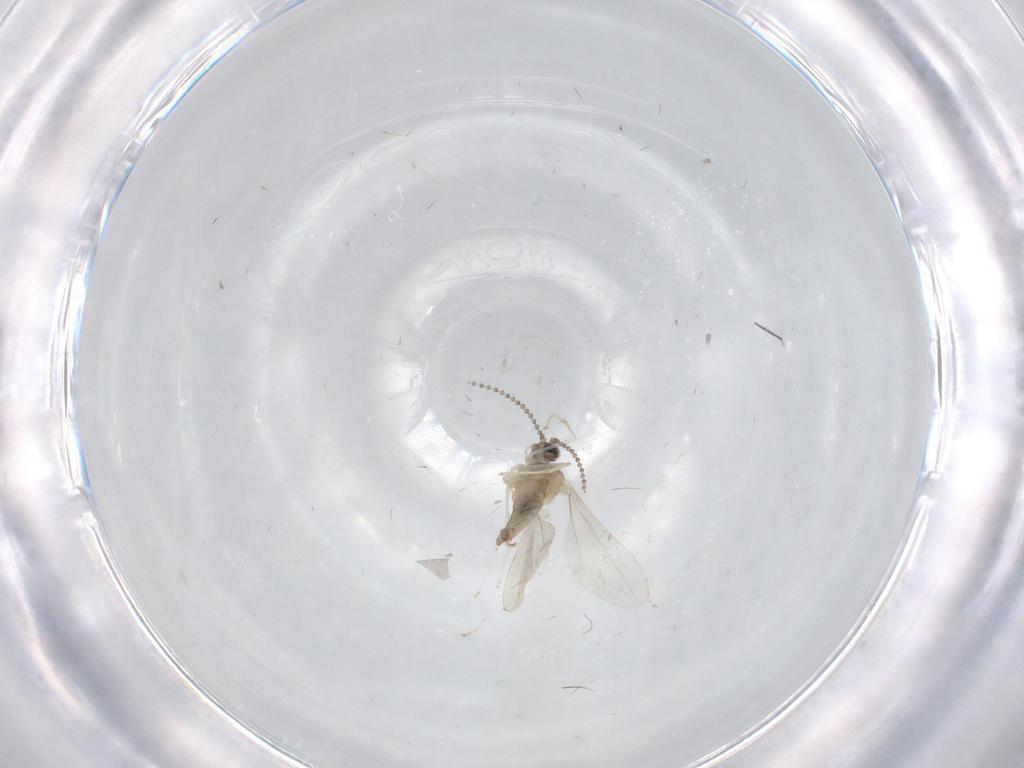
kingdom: Animalia
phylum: Arthropoda
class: Insecta
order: Diptera
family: Cecidomyiidae
